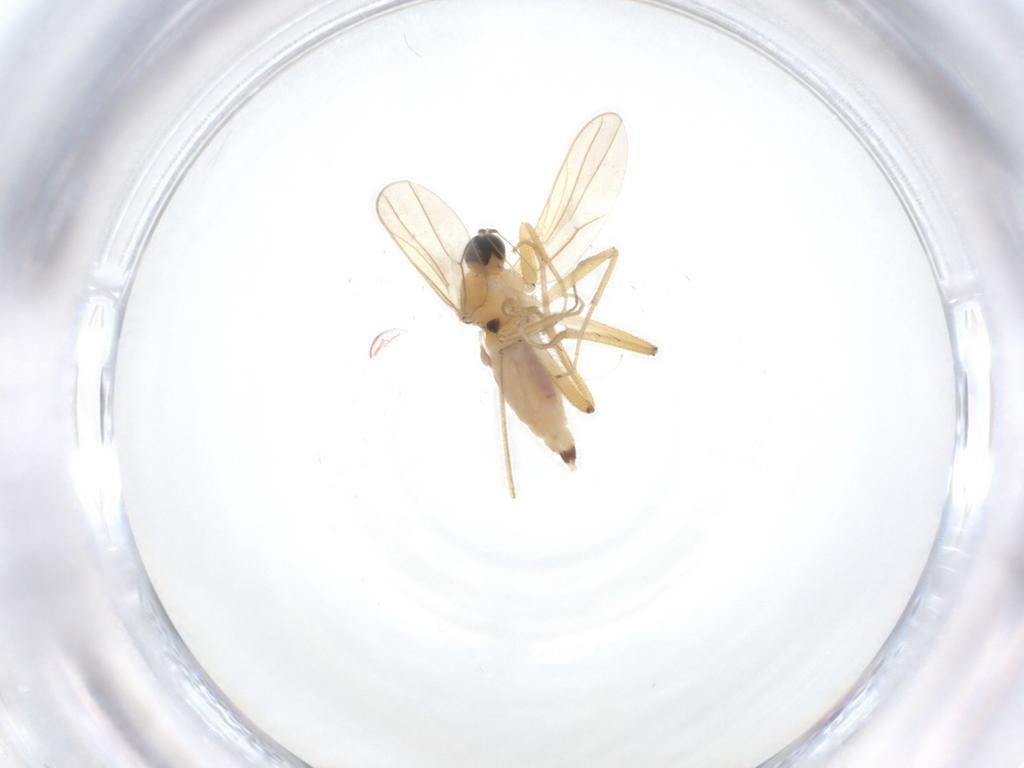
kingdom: Animalia
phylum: Arthropoda
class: Insecta
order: Diptera
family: Hybotidae
